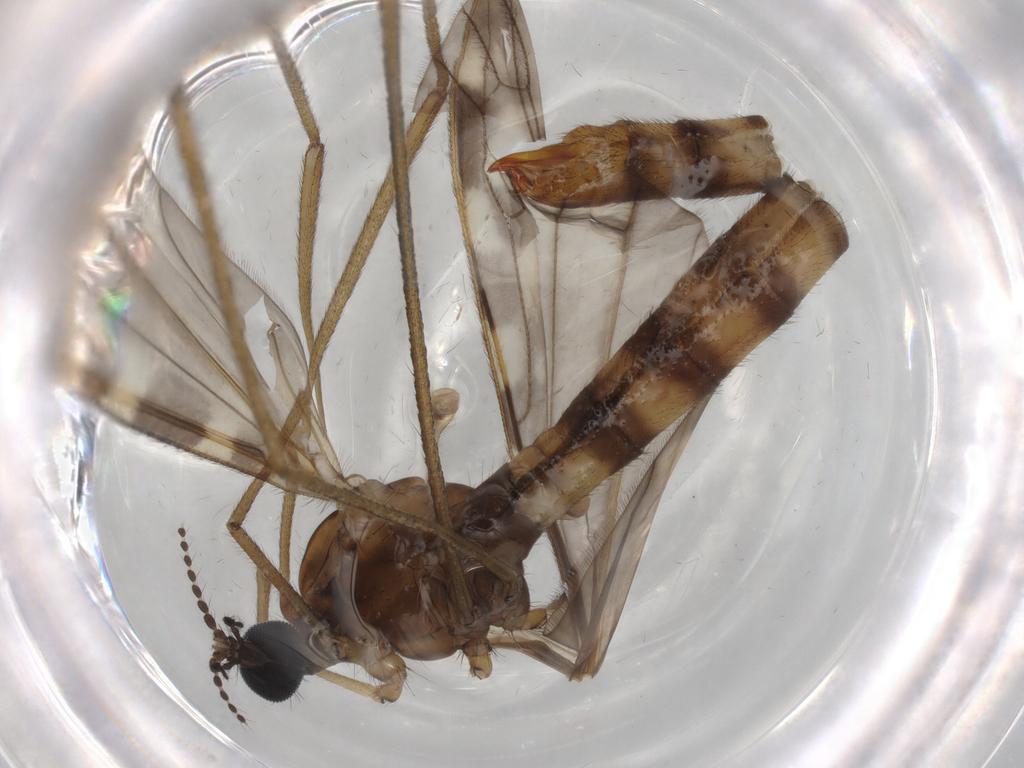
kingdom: Animalia
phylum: Arthropoda
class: Insecta
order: Diptera
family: Limoniidae
